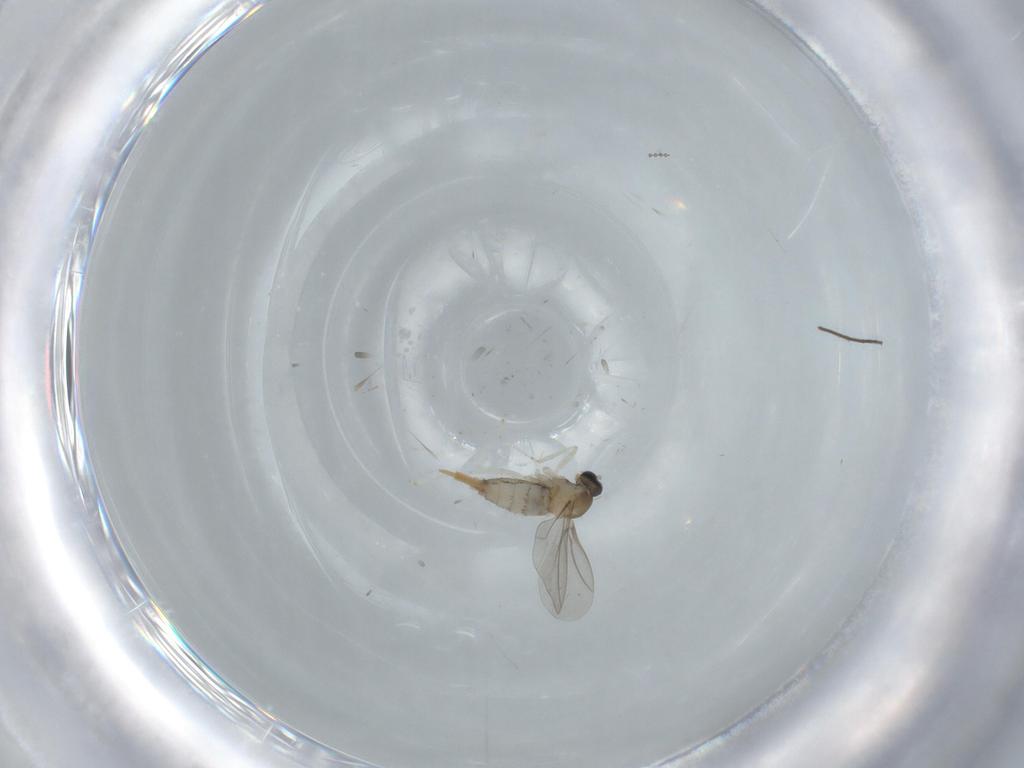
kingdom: Animalia
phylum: Arthropoda
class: Insecta
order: Diptera
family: Cecidomyiidae
